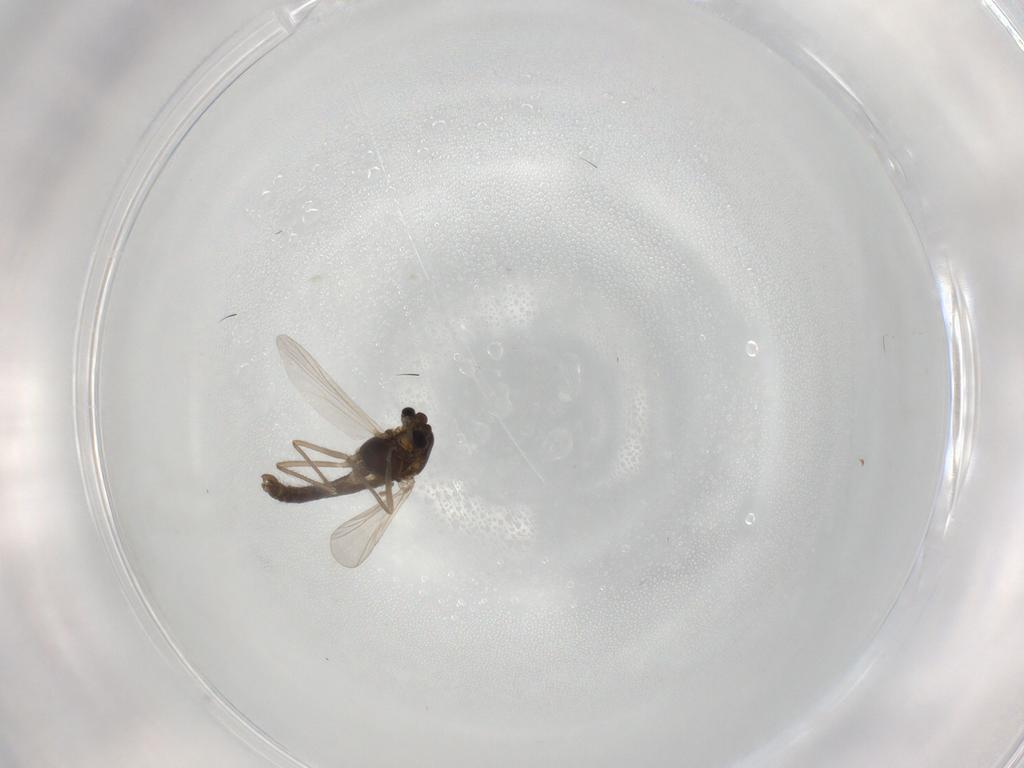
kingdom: Animalia
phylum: Arthropoda
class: Insecta
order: Diptera
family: Chironomidae
